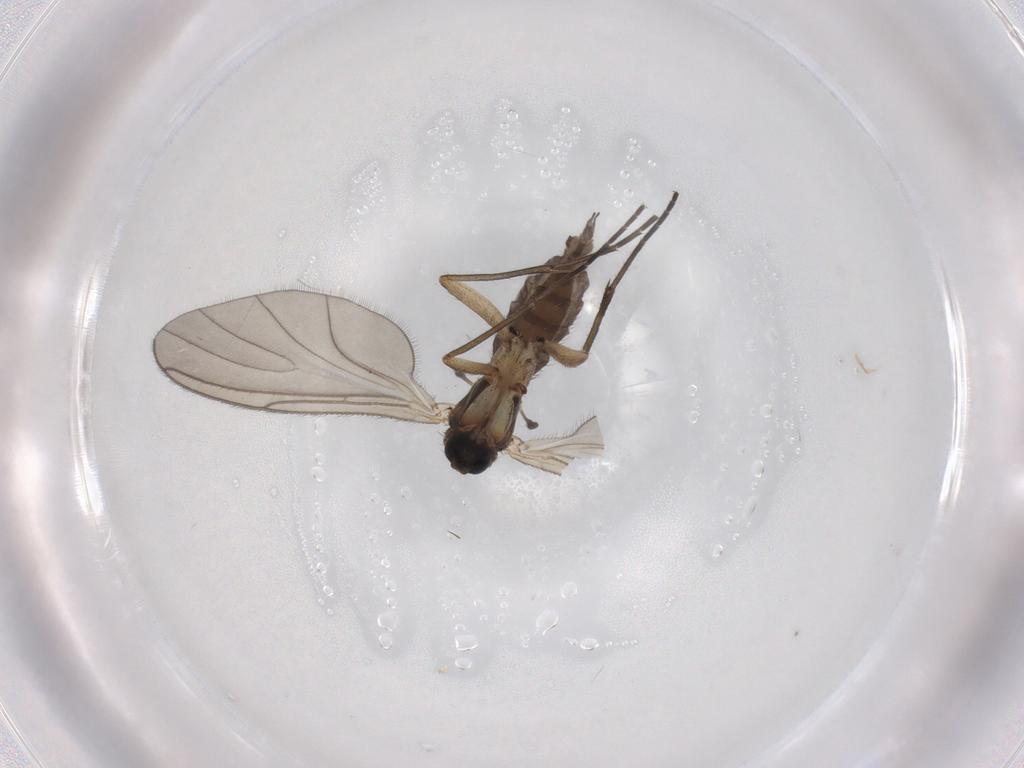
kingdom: Animalia
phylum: Arthropoda
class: Insecta
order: Diptera
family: Sciaridae
